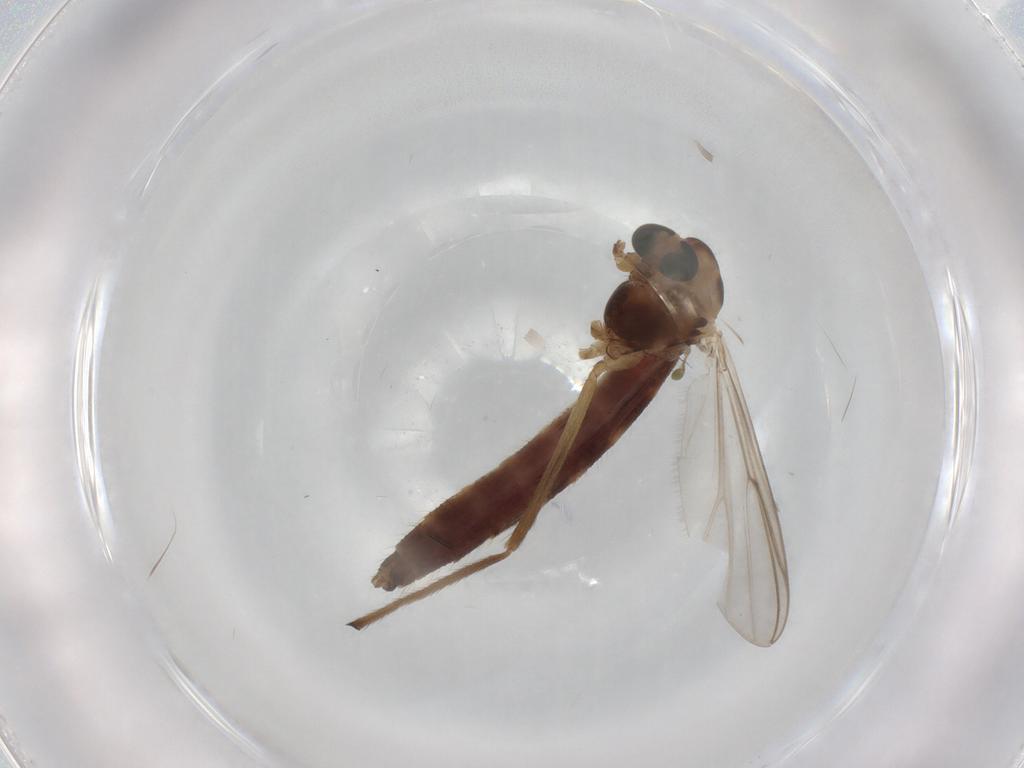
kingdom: Animalia
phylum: Arthropoda
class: Insecta
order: Diptera
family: Chironomidae
